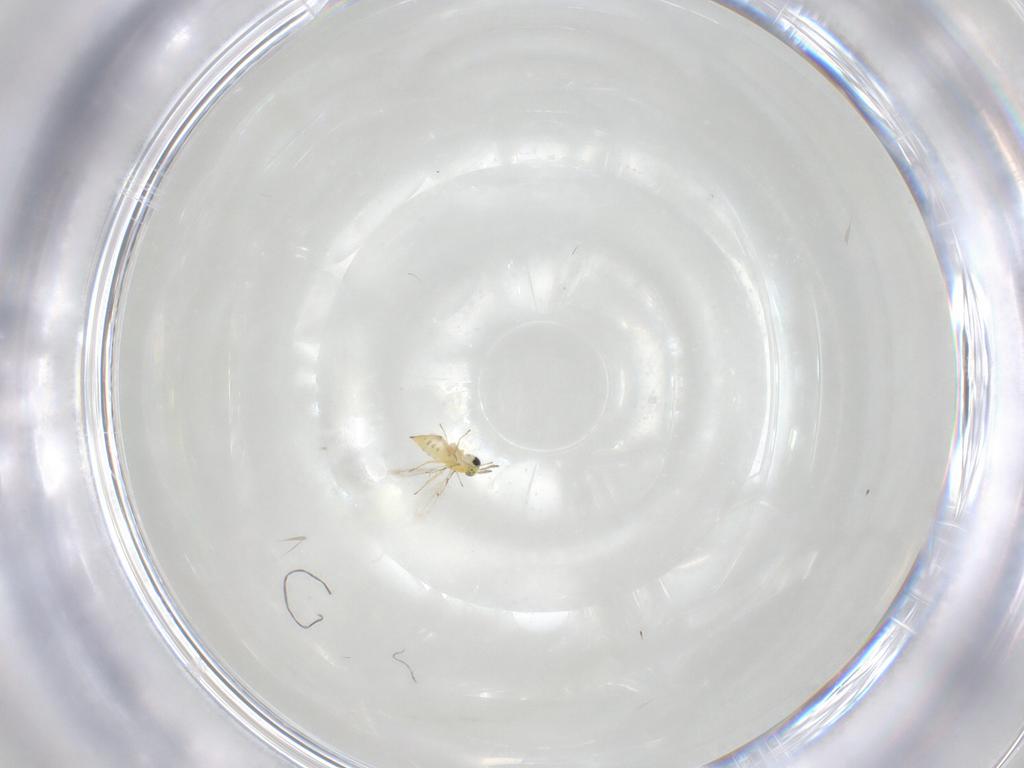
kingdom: Animalia
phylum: Arthropoda
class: Insecta
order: Hymenoptera
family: Trichogrammatidae
